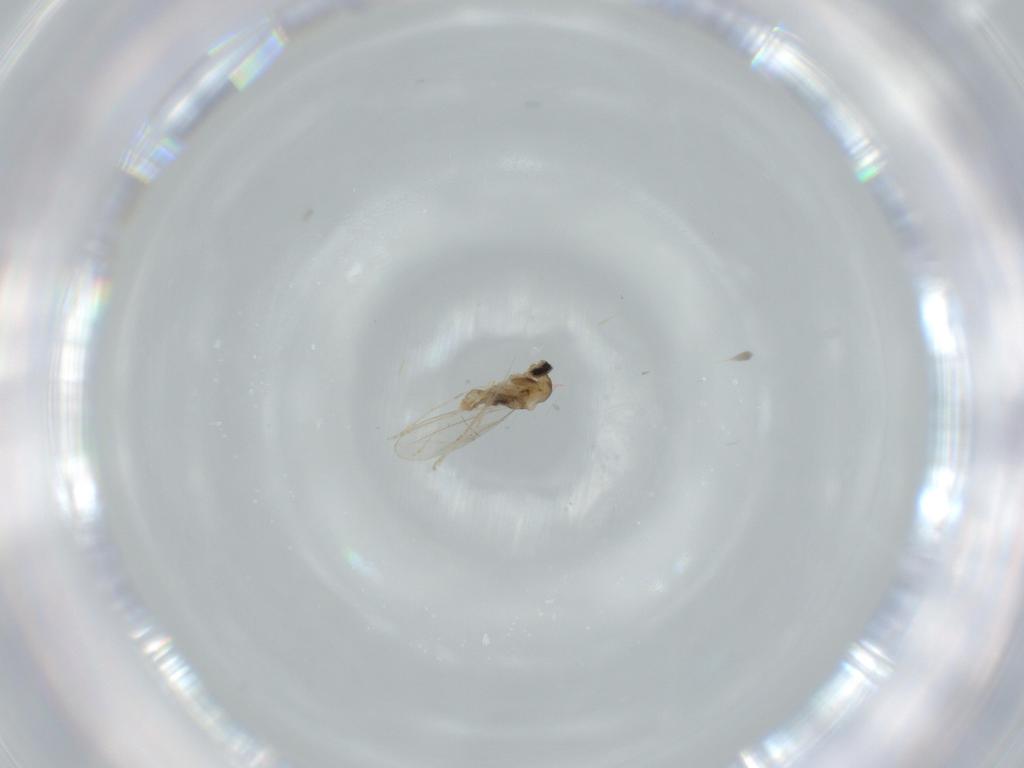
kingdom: Animalia
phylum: Arthropoda
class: Insecta
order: Diptera
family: Cecidomyiidae
